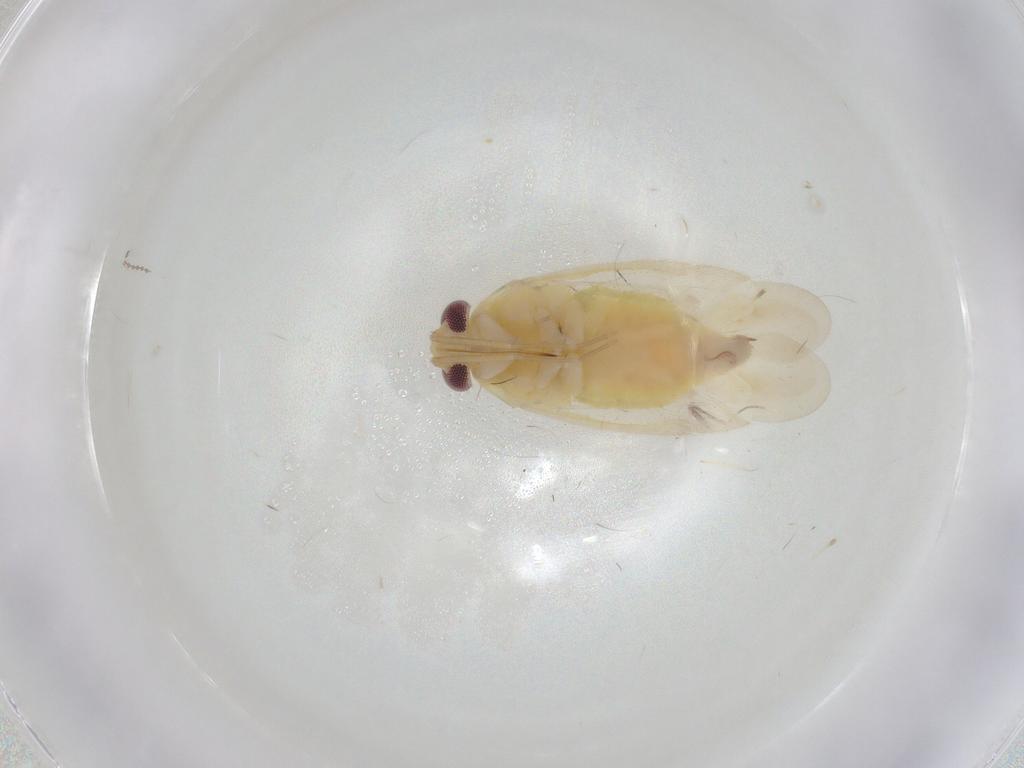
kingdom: Animalia
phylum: Arthropoda
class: Insecta
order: Hemiptera
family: Miridae
